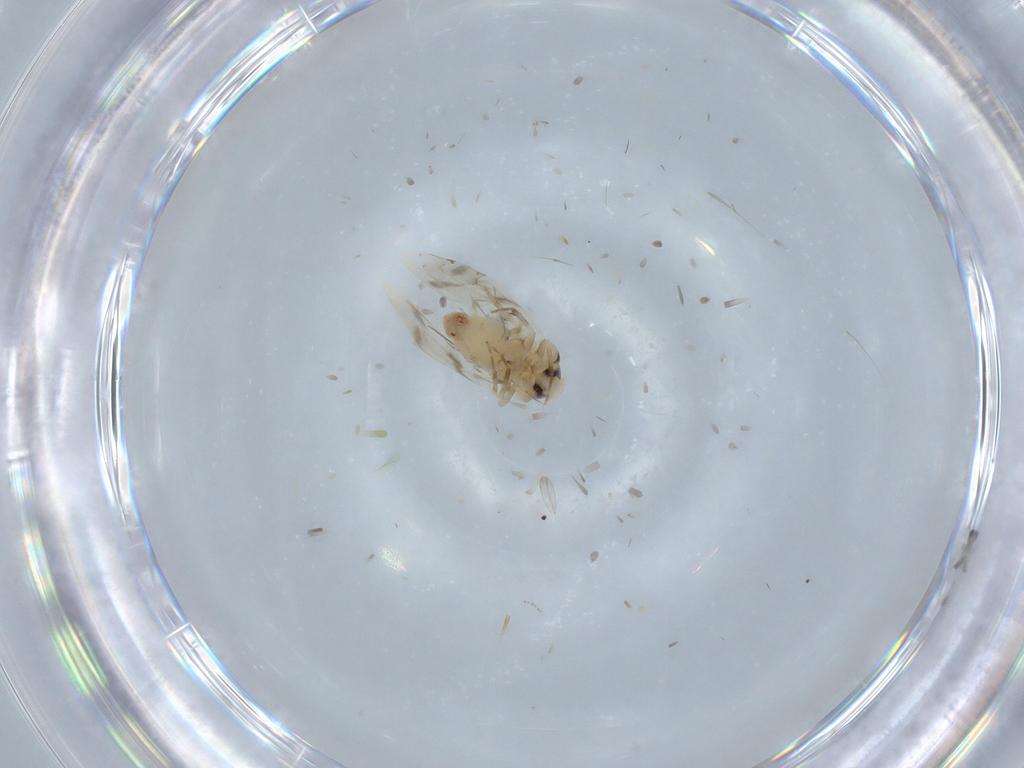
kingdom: Animalia
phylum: Arthropoda
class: Insecta
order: Hemiptera
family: Aleyrodidae
